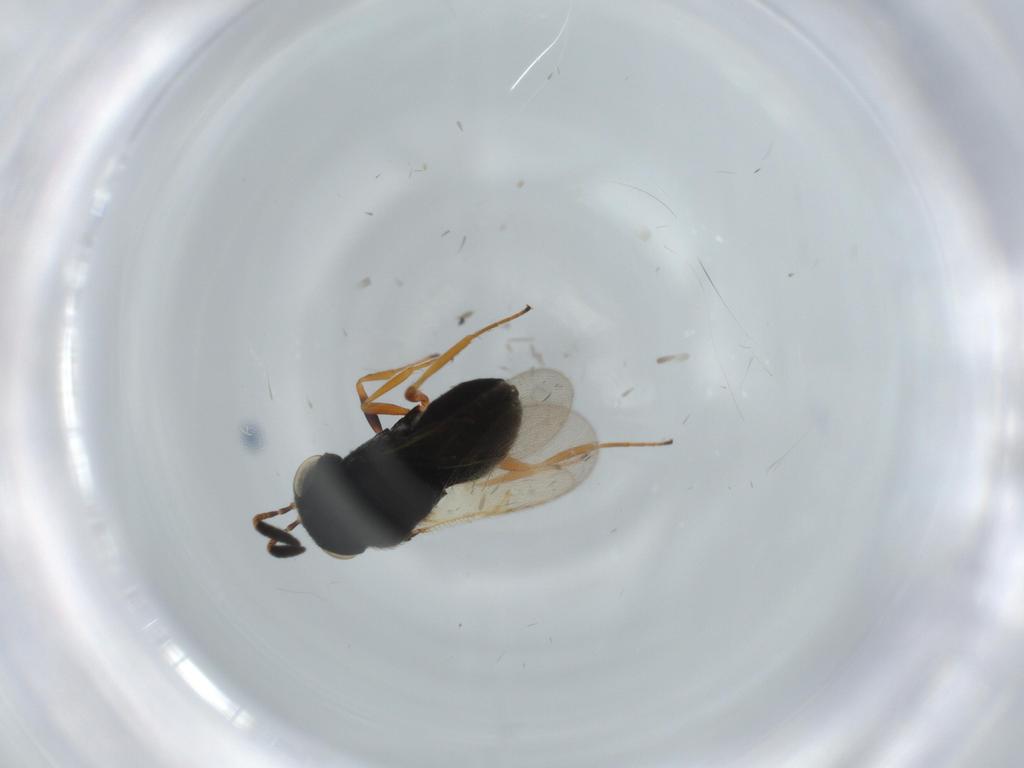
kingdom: Animalia
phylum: Arthropoda
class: Insecta
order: Hymenoptera
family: Scelionidae
